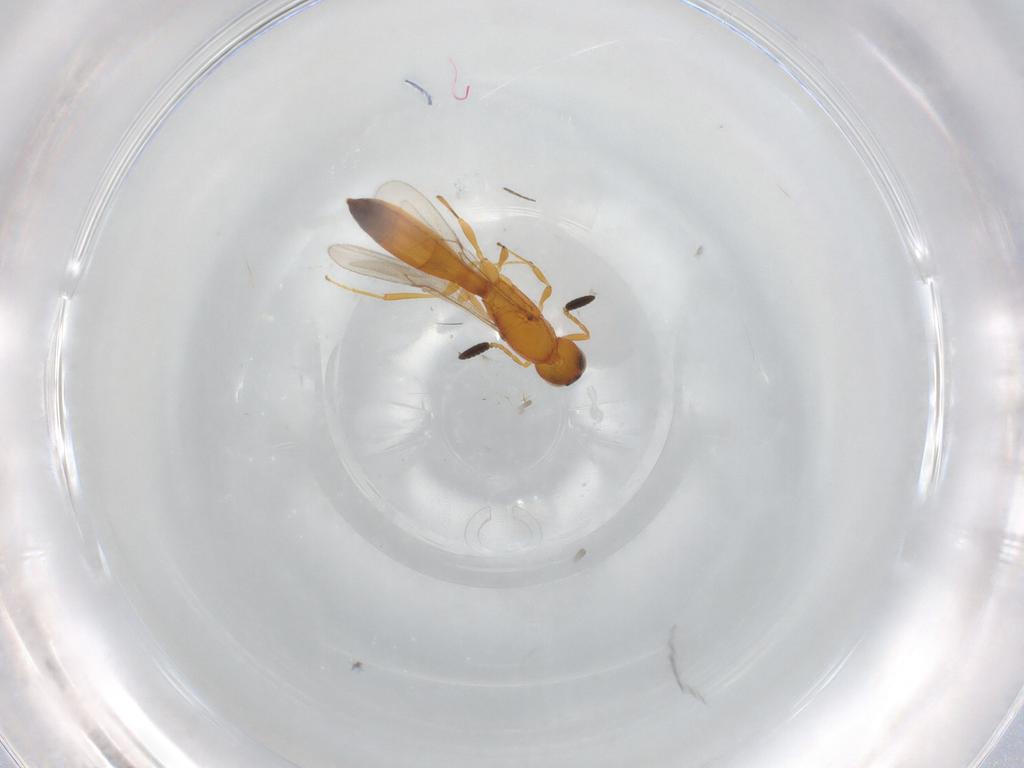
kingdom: Animalia
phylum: Arthropoda
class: Insecta
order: Hymenoptera
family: Scelionidae
